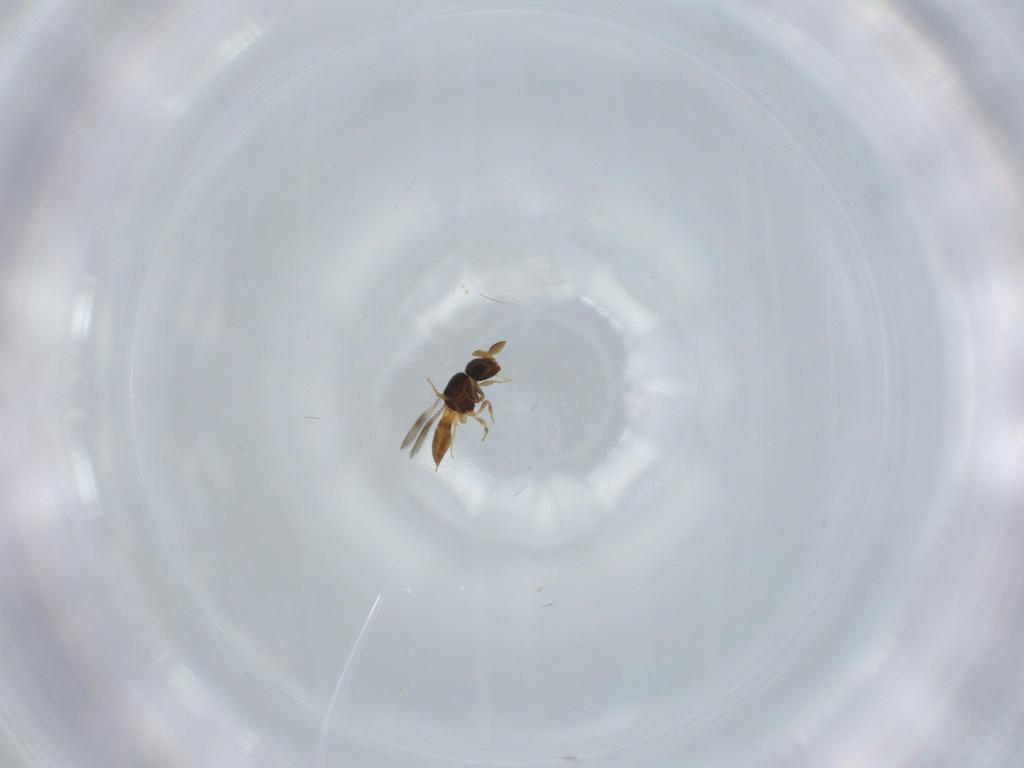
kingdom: Animalia
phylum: Arthropoda
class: Insecta
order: Hymenoptera
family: Scelionidae
